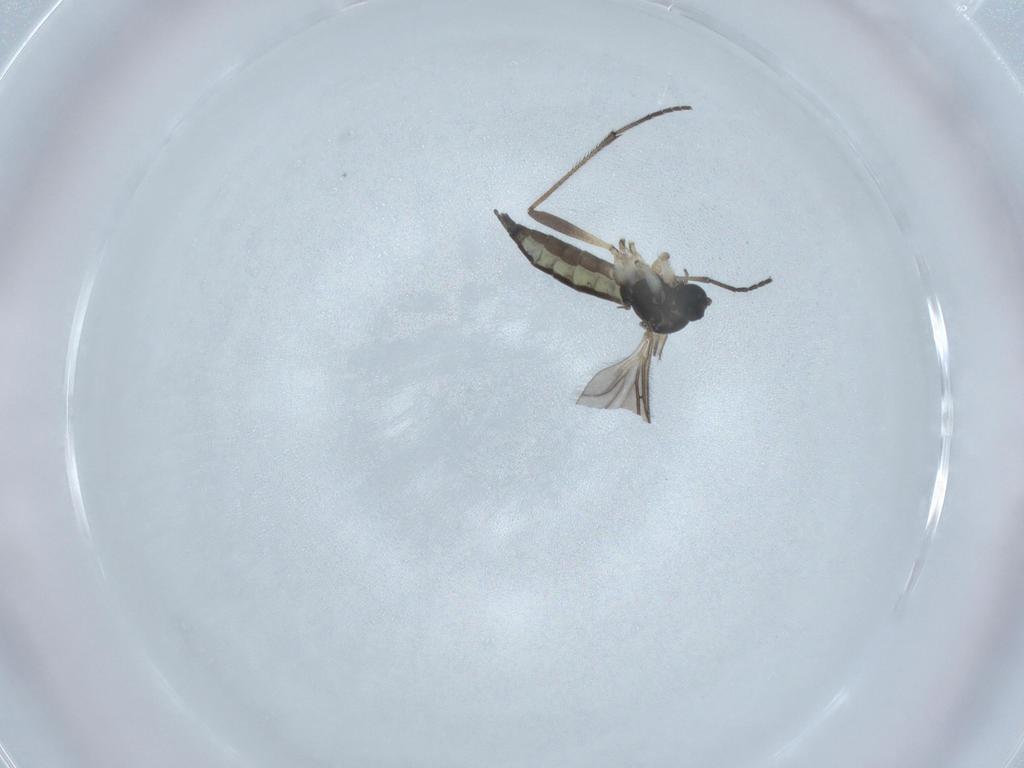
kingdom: Animalia
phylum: Arthropoda
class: Insecta
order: Diptera
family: Sciaridae
